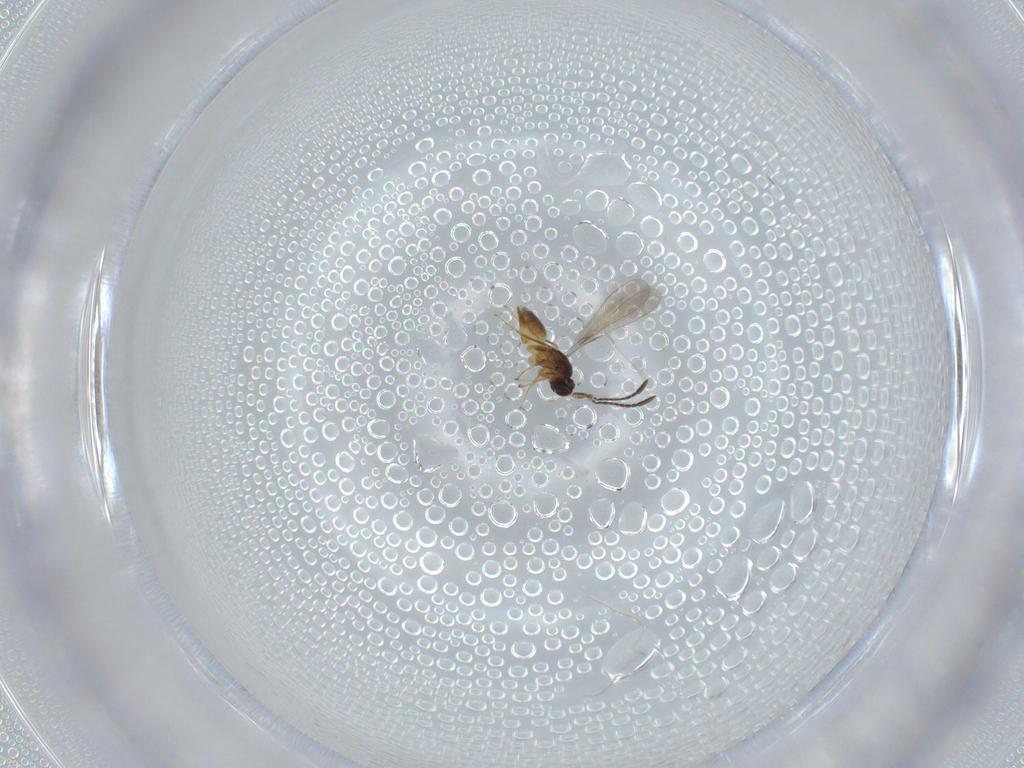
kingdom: Animalia
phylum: Arthropoda
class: Insecta
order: Hymenoptera
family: Mymaridae
